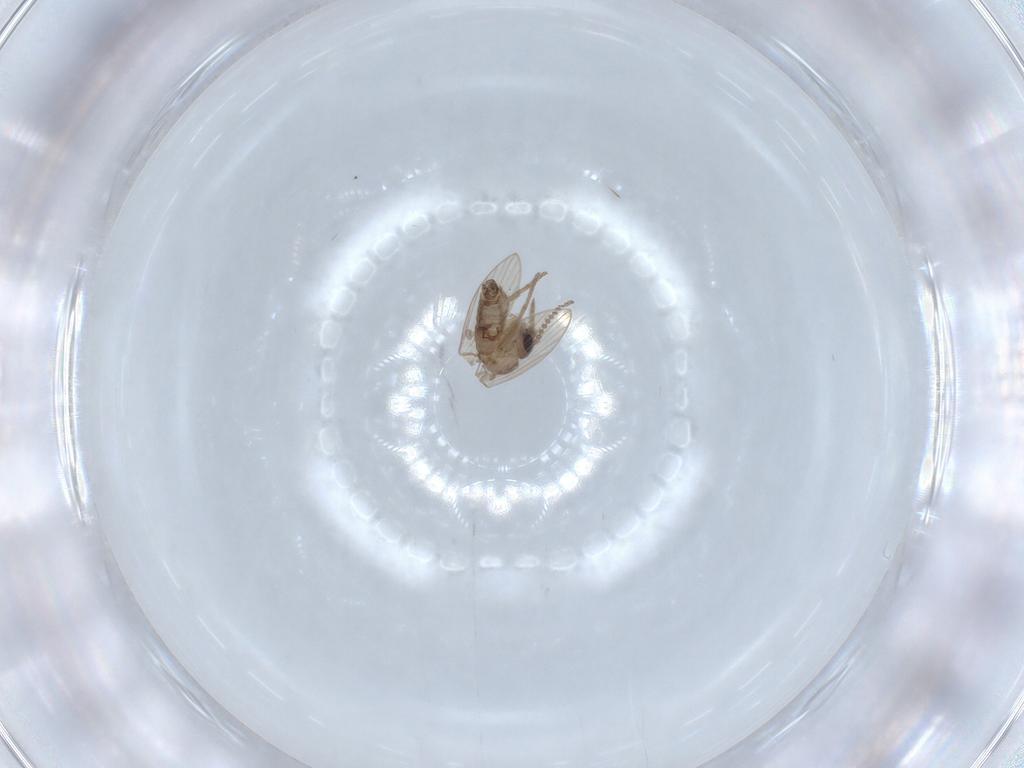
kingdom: Animalia
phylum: Arthropoda
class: Insecta
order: Diptera
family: Psychodidae
